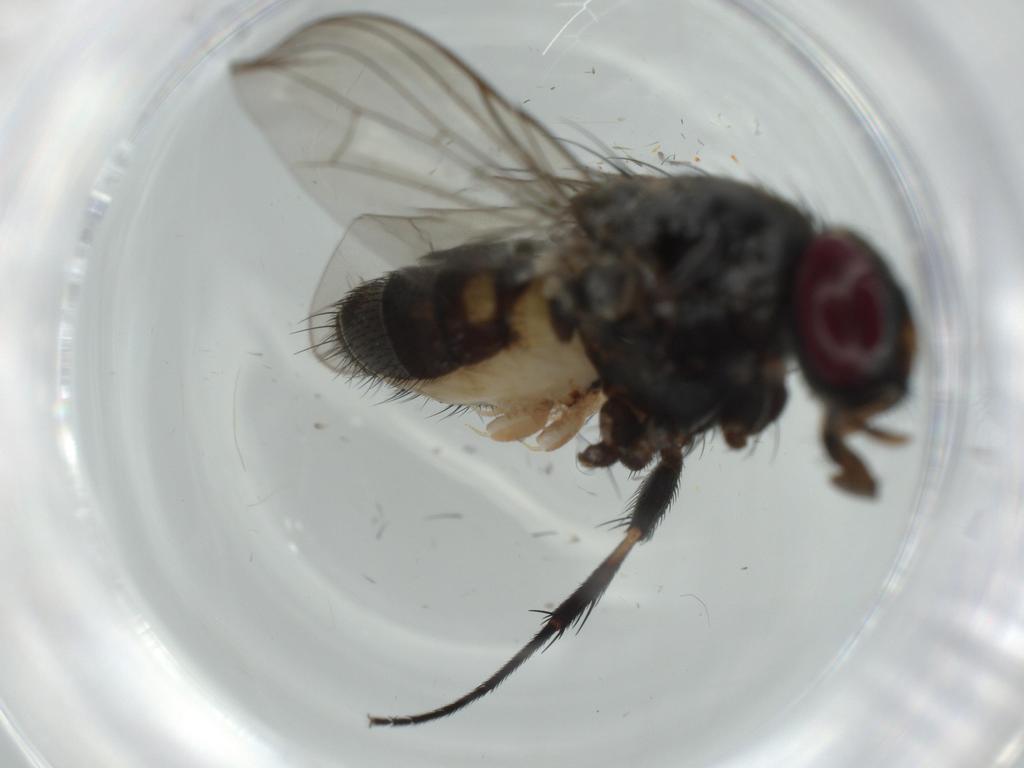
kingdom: Animalia
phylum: Arthropoda
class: Insecta
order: Diptera
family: Fannia
